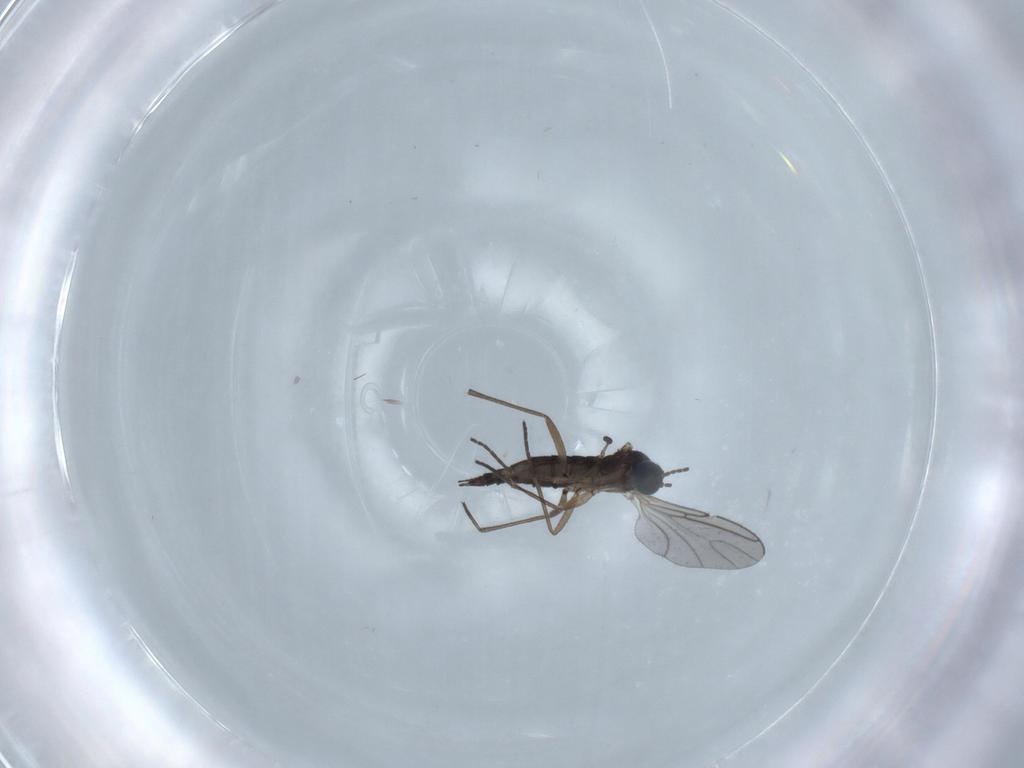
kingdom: Animalia
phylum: Arthropoda
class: Insecta
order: Diptera
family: Sciaridae
